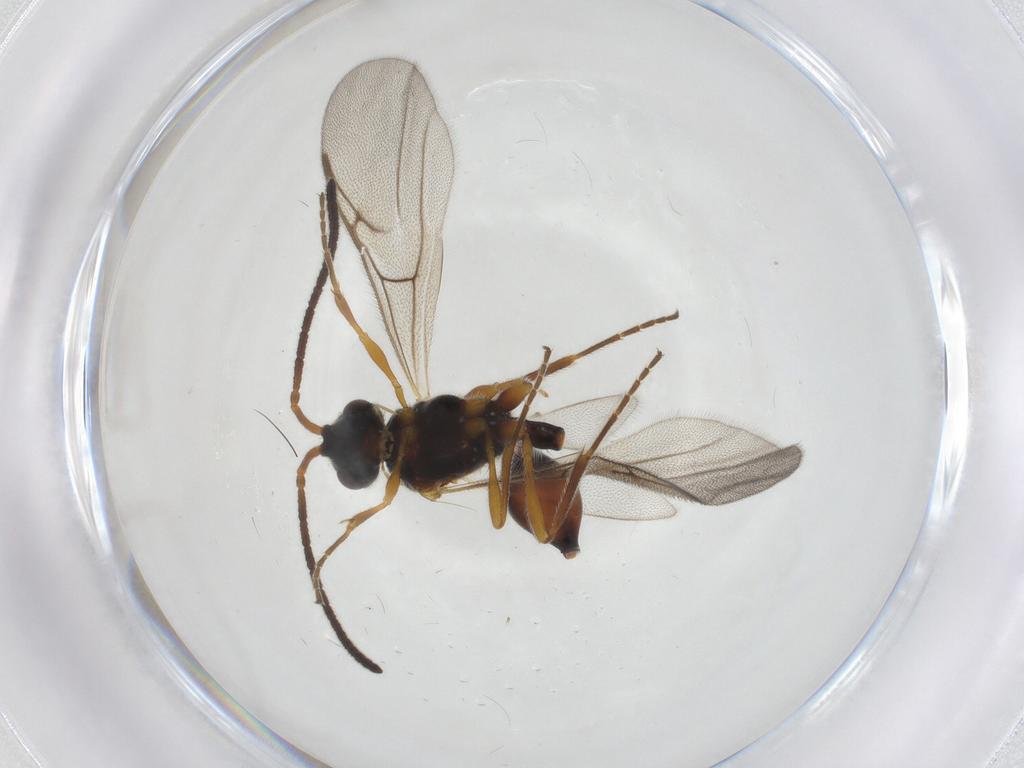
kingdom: Animalia
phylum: Arthropoda
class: Insecta
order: Hymenoptera
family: Diapriidae
